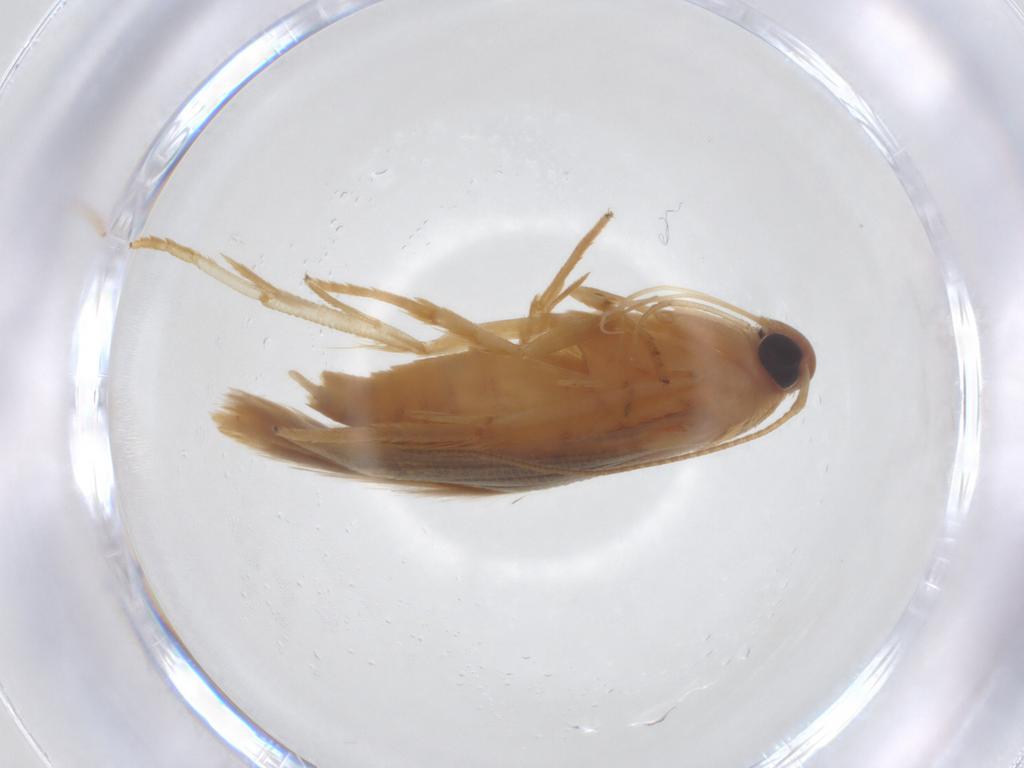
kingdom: Animalia
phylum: Arthropoda
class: Insecta
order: Lepidoptera
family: Stathmopodidae
